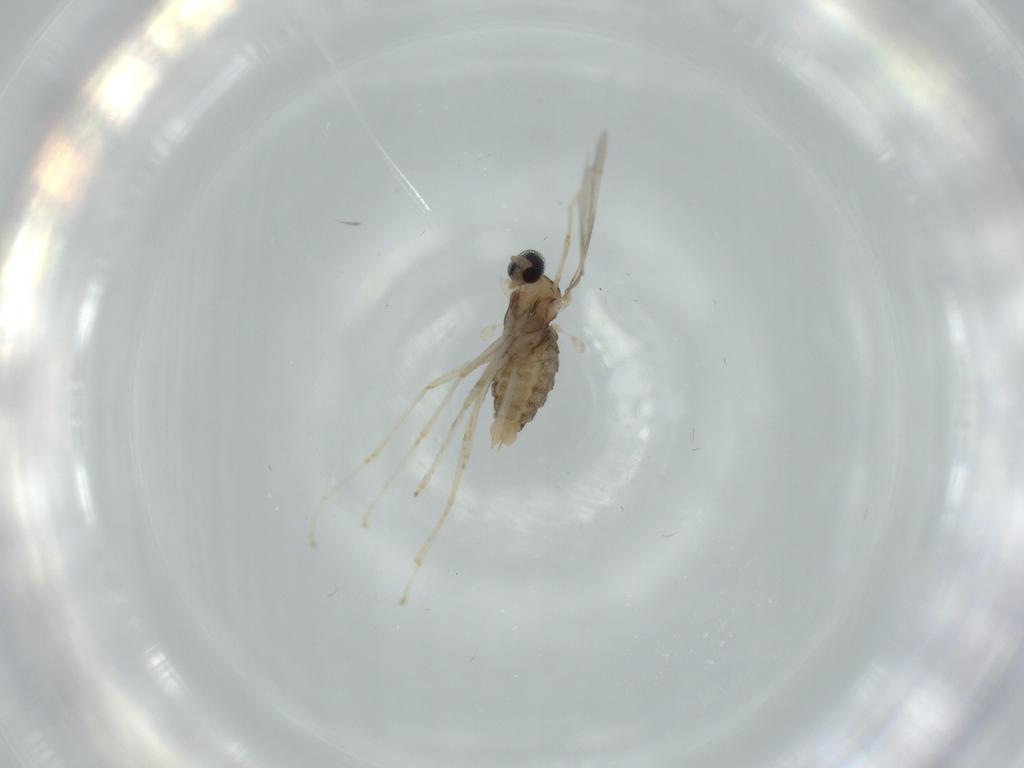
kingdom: Animalia
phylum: Arthropoda
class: Insecta
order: Diptera
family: Cecidomyiidae
